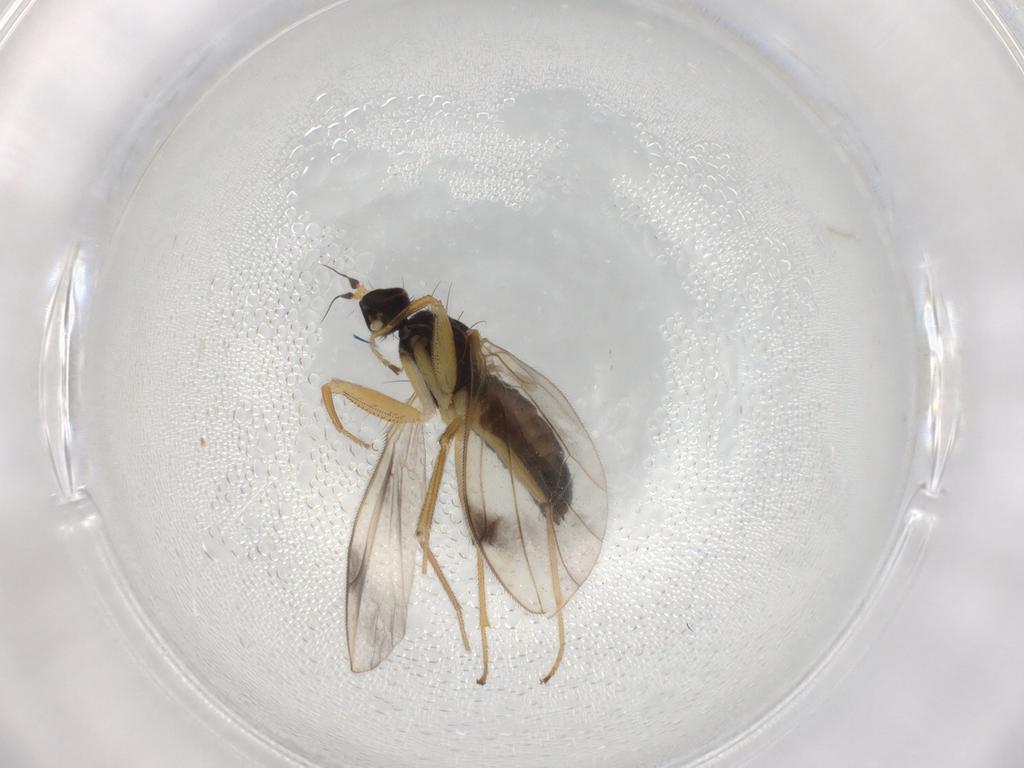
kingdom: Animalia
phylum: Arthropoda
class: Insecta
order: Diptera
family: Ceratopogonidae
